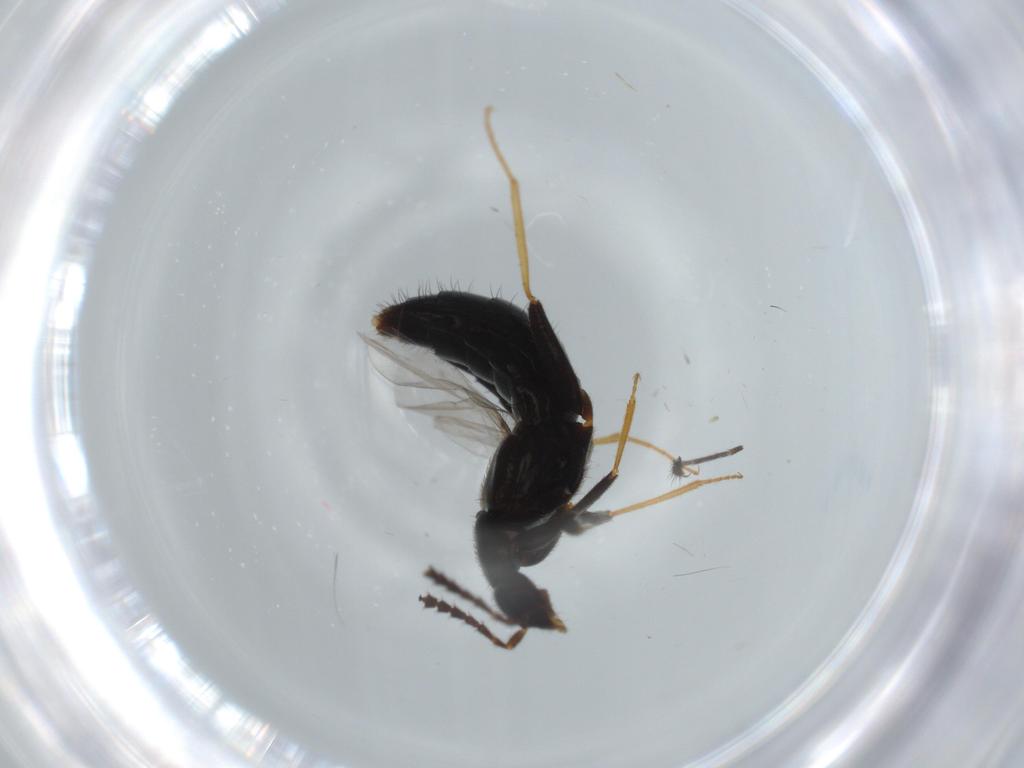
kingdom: Animalia
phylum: Arthropoda
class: Insecta
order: Coleoptera
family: Staphylinidae
